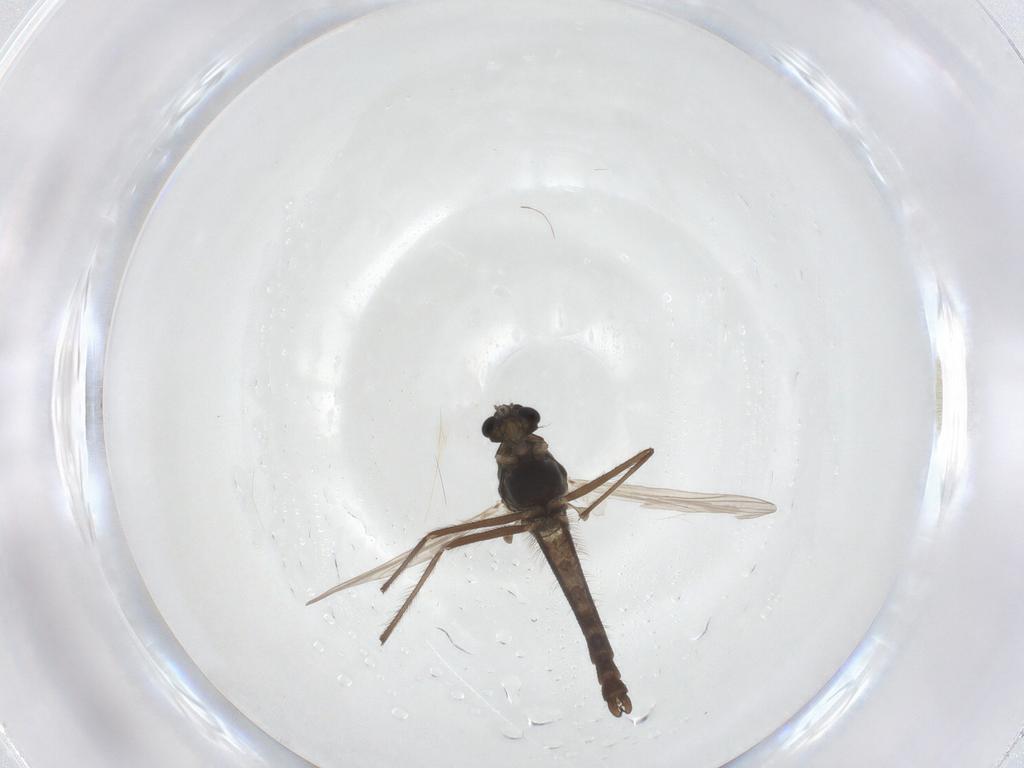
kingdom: Animalia
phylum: Arthropoda
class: Insecta
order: Diptera
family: Chironomidae
